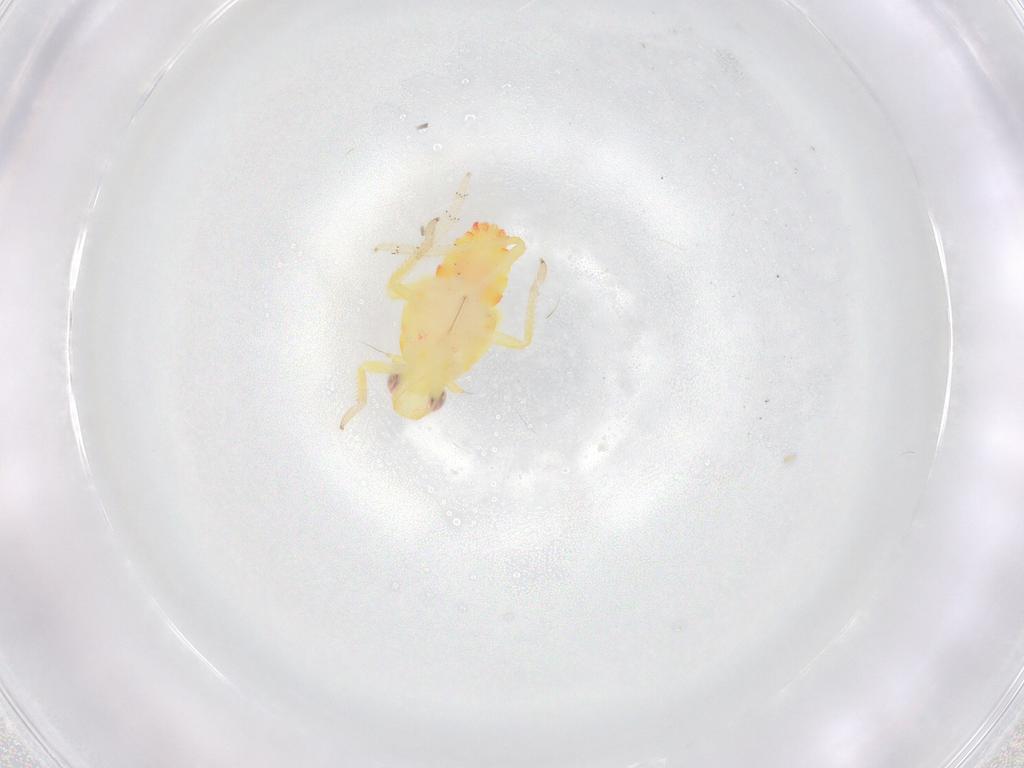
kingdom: Animalia
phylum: Arthropoda
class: Insecta
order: Hemiptera
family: Tropiduchidae
